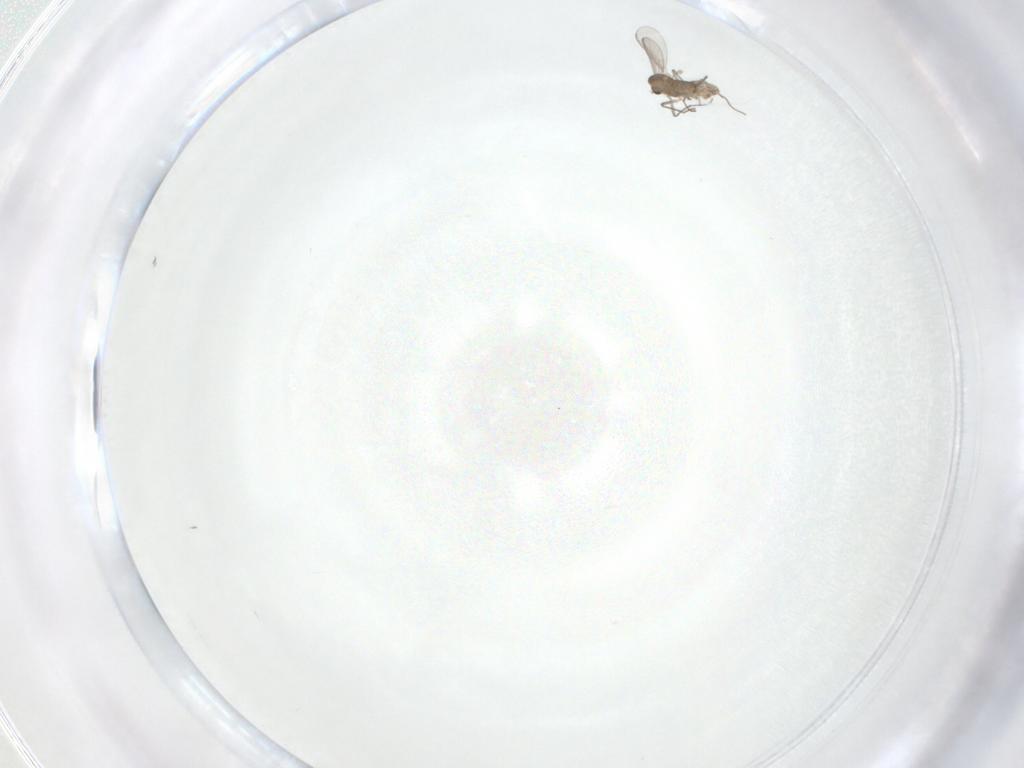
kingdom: Animalia
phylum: Arthropoda
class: Insecta
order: Diptera
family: Chironomidae
